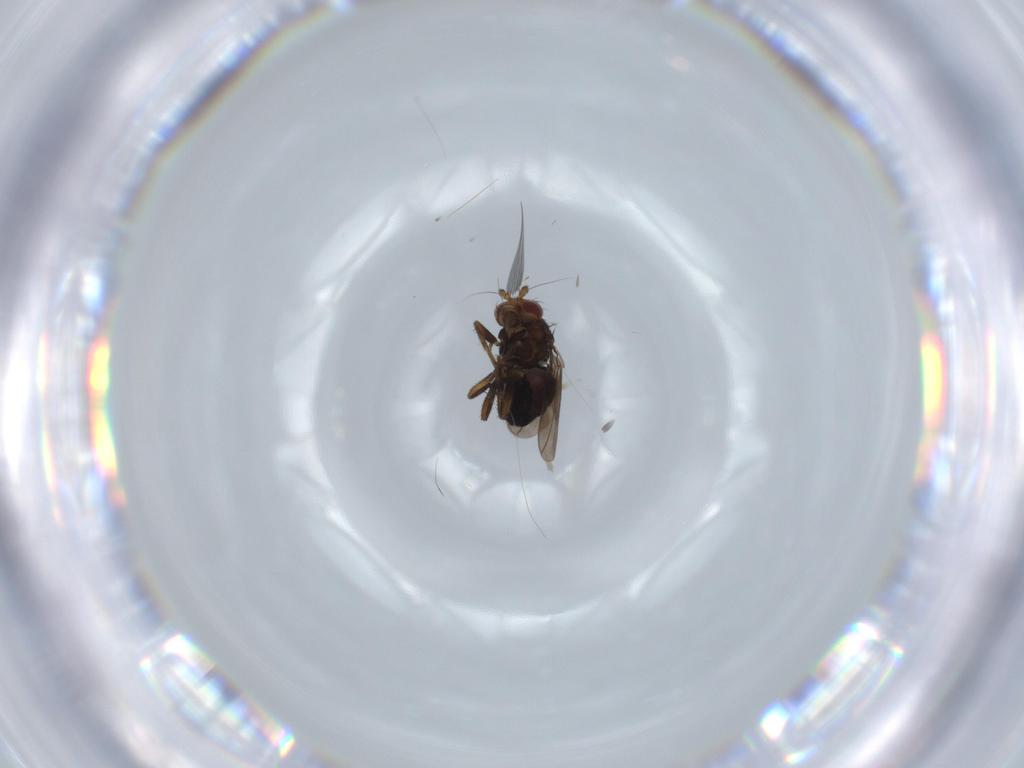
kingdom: Animalia
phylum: Arthropoda
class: Insecta
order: Diptera
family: Sphaeroceridae
